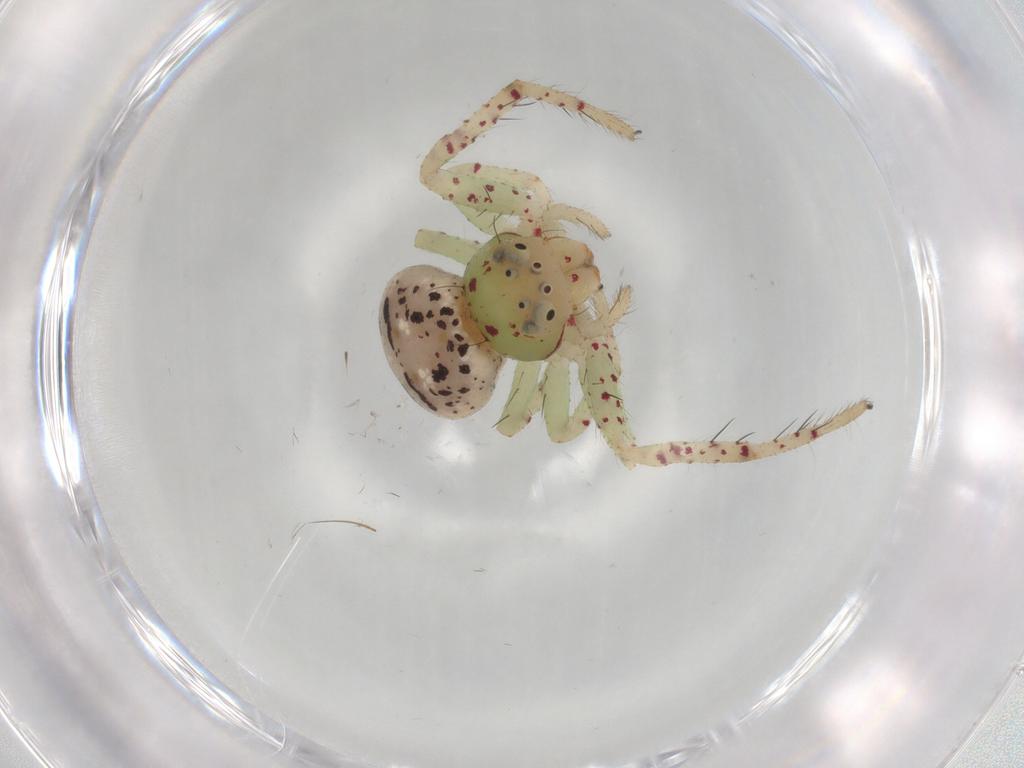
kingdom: Animalia
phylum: Arthropoda
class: Arachnida
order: Araneae
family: Thomisidae
